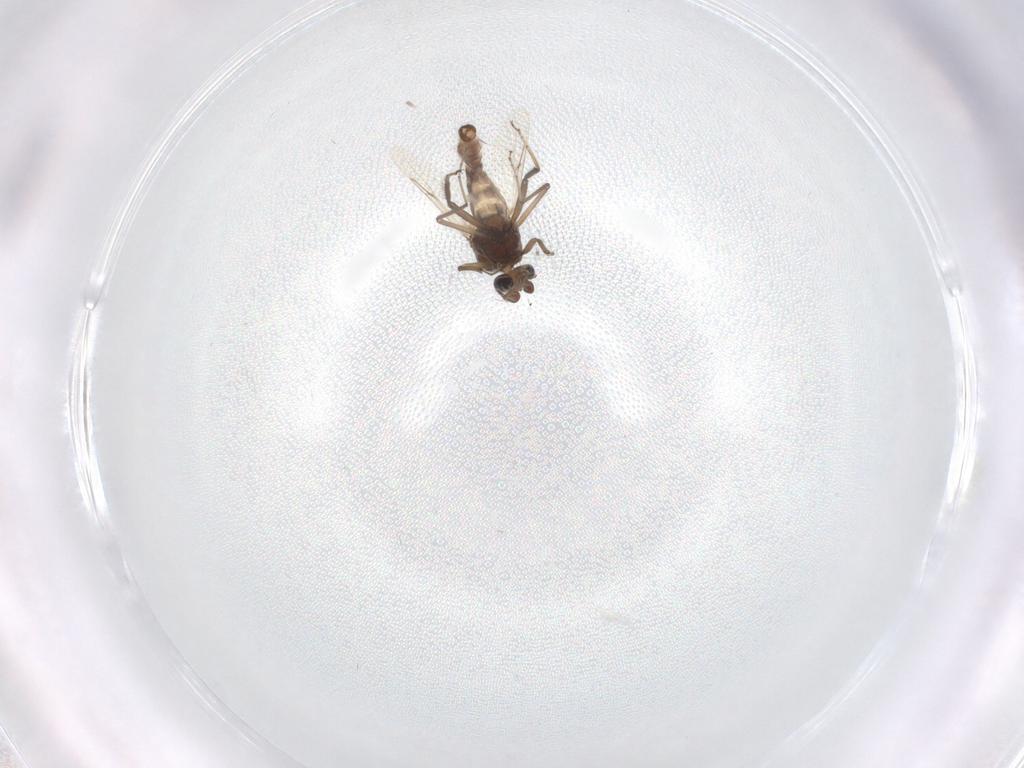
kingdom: Animalia
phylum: Arthropoda
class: Insecta
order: Diptera
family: Ceratopogonidae
